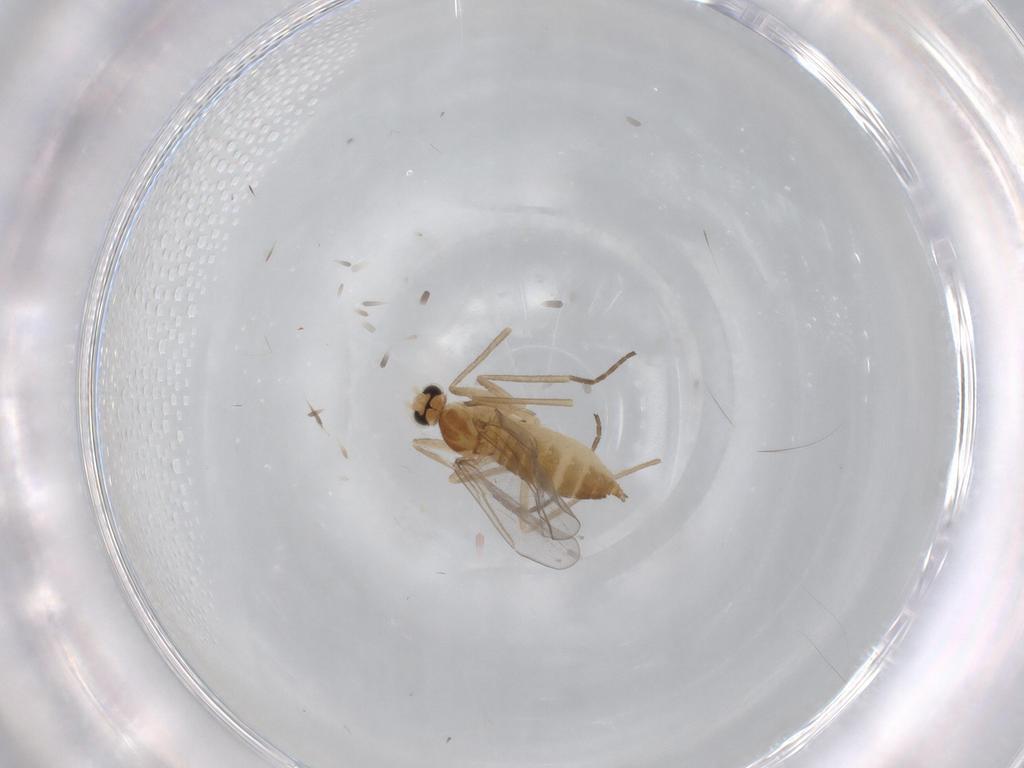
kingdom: Animalia
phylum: Arthropoda
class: Insecta
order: Diptera
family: Cecidomyiidae
